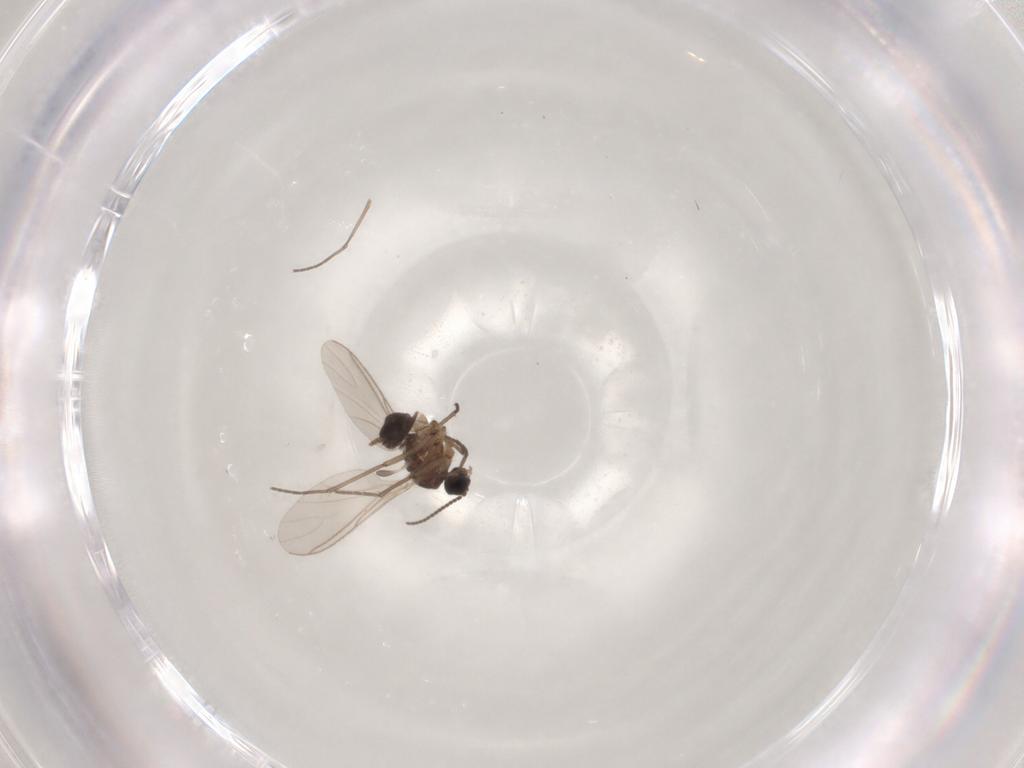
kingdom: Animalia
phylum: Arthropoda
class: Insecta
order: Diptera
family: Sciaridae
